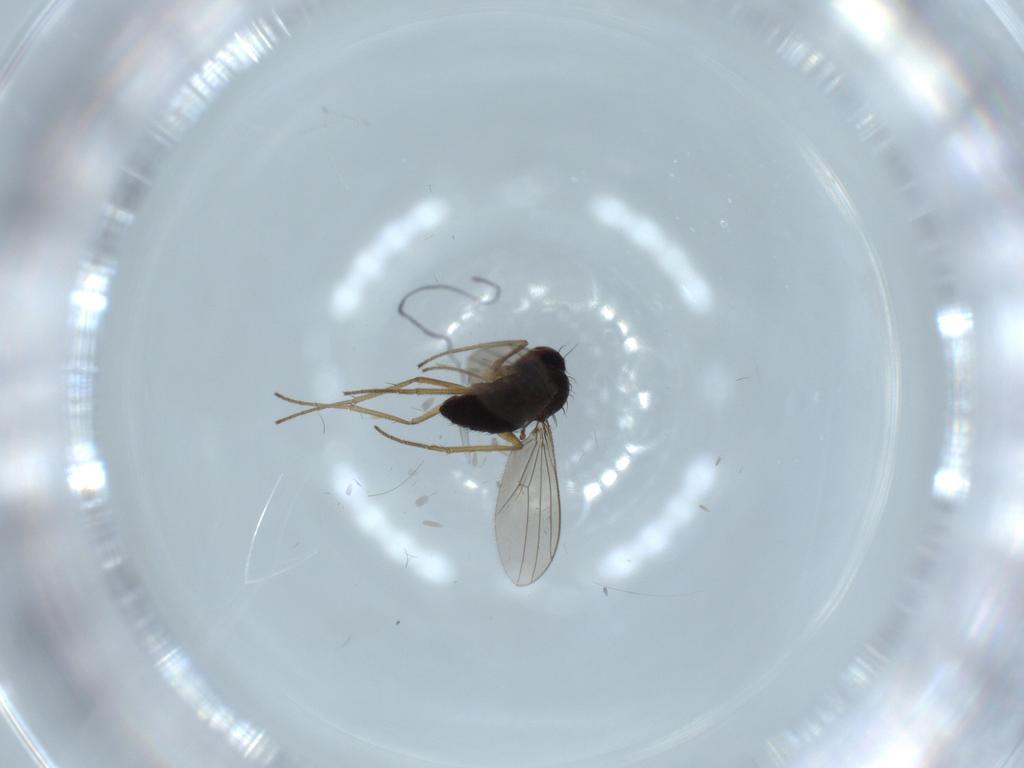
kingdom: Animalia
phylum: Arthropoda
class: Insecta
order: Diptera
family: Dolichopodidae
